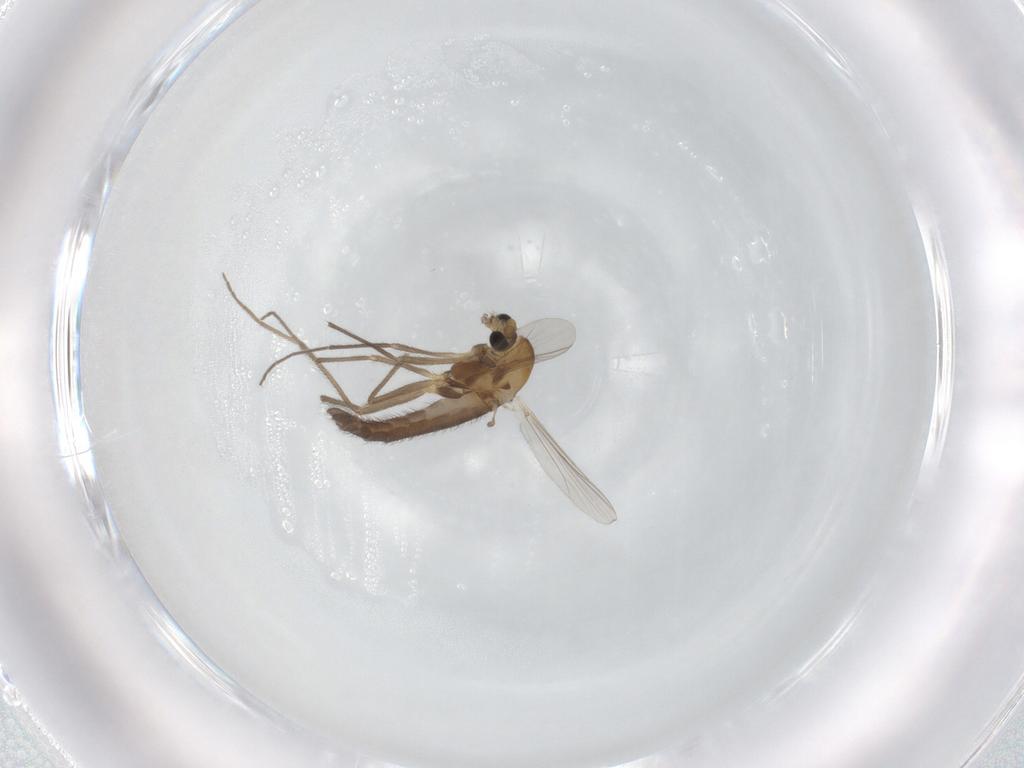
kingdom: Animalia
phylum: Arthropoda
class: Insecta
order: Diptera
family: Chironomidae
